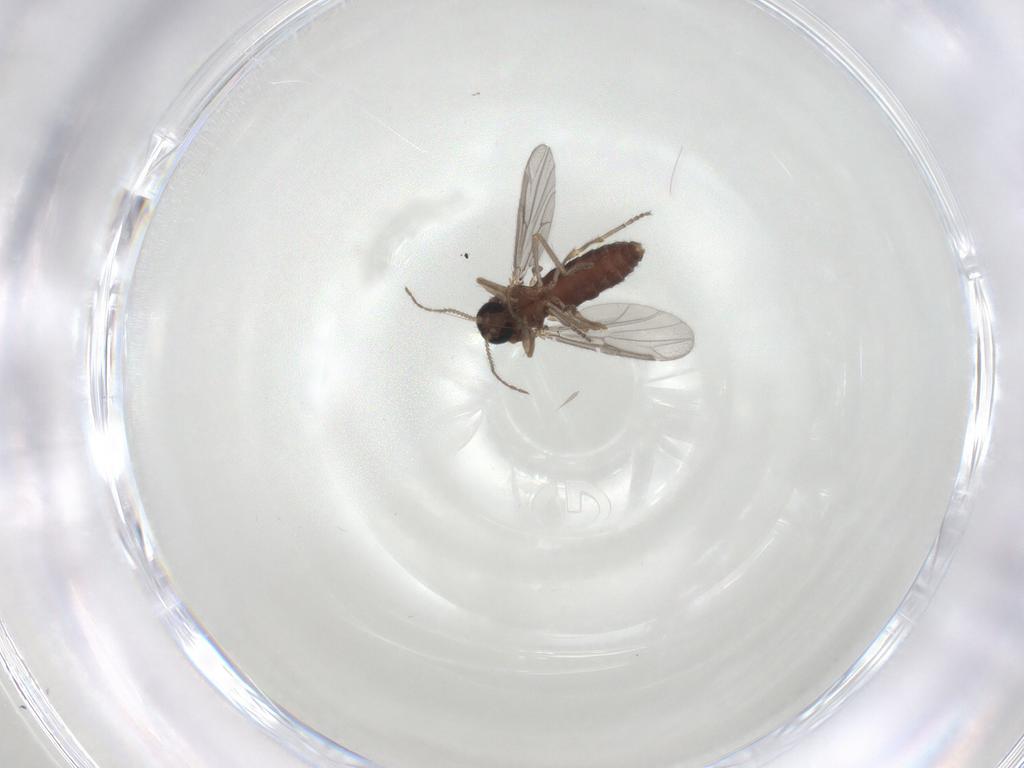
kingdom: Animalia
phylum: Arthropoda
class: Insecta
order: Diptera
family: Ceratopogonidae
